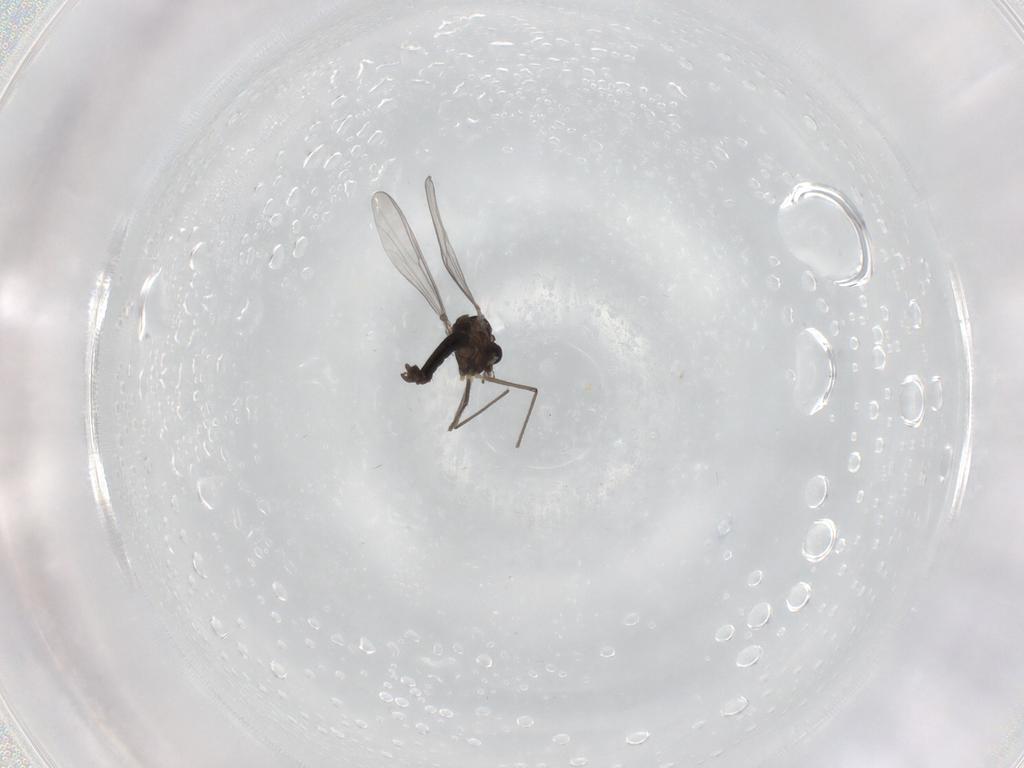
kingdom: Animalia
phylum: Arthropoda
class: Insecta
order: Diptera
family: Chironomidae
